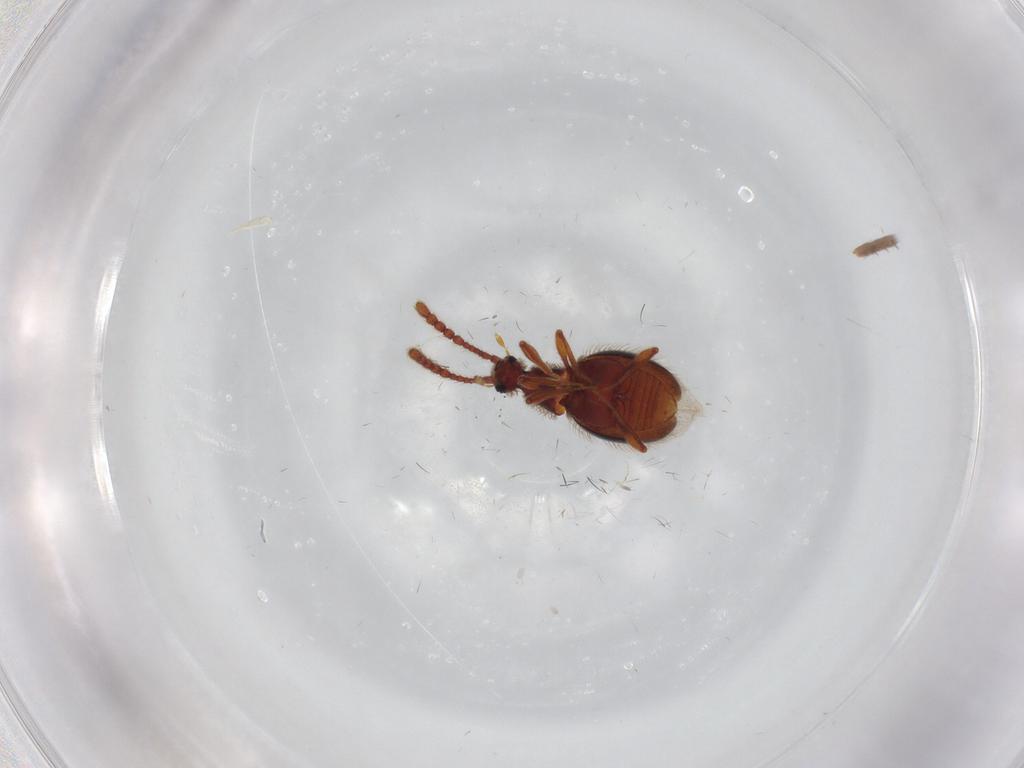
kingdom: Animalia
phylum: Arthropoda
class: Insecta
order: Coleoptera
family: Staphylinidae
